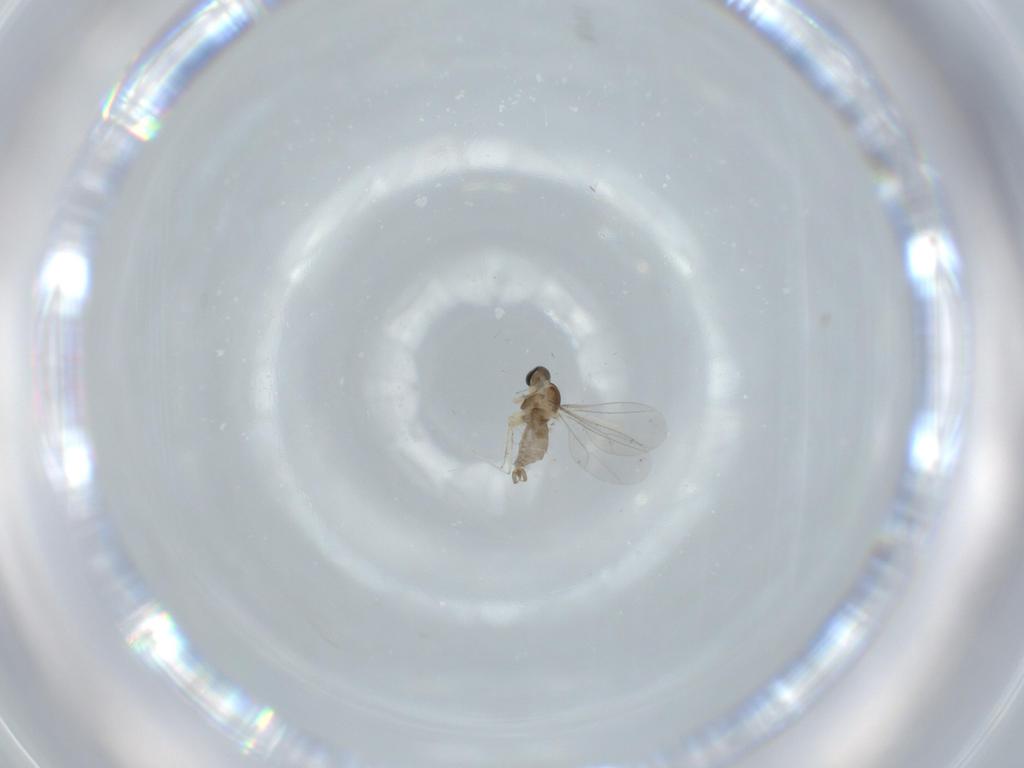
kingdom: Animalia
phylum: Arthropoda
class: Insecta
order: Diptera
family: Cecidomyiidae
